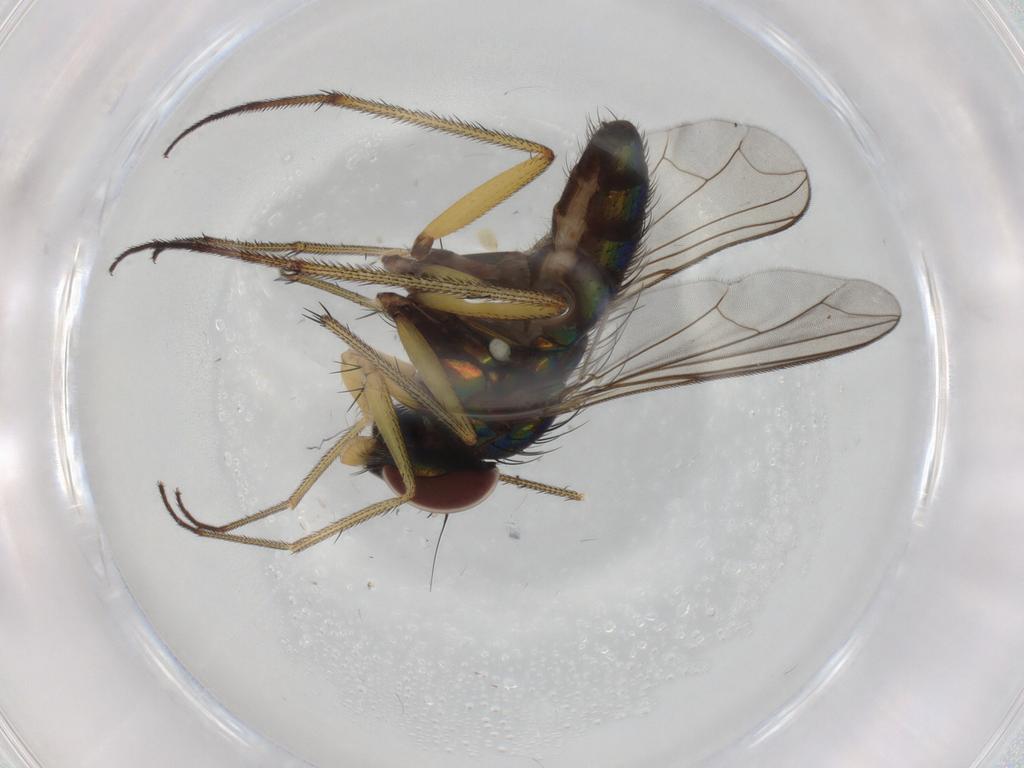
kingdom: Animalia
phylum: Arthropoda
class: Insecta
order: Diptera
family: Dolichopodidae
